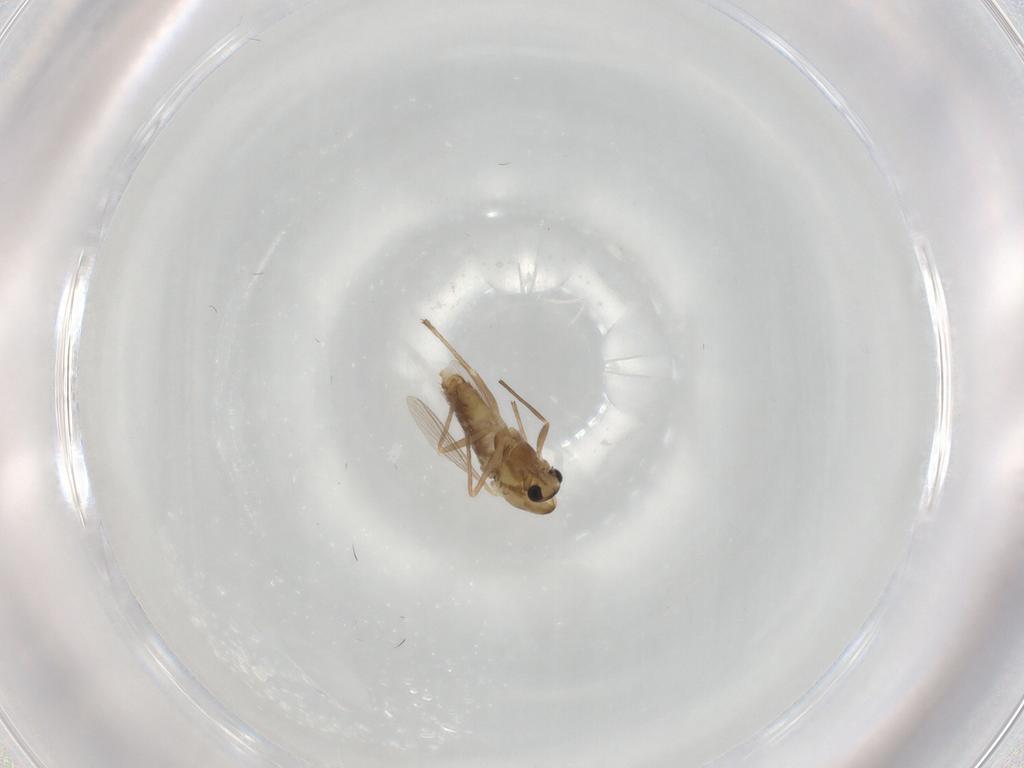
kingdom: Animalia
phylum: Arthropoda
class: Insecta
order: Diptera
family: Chironomidae
